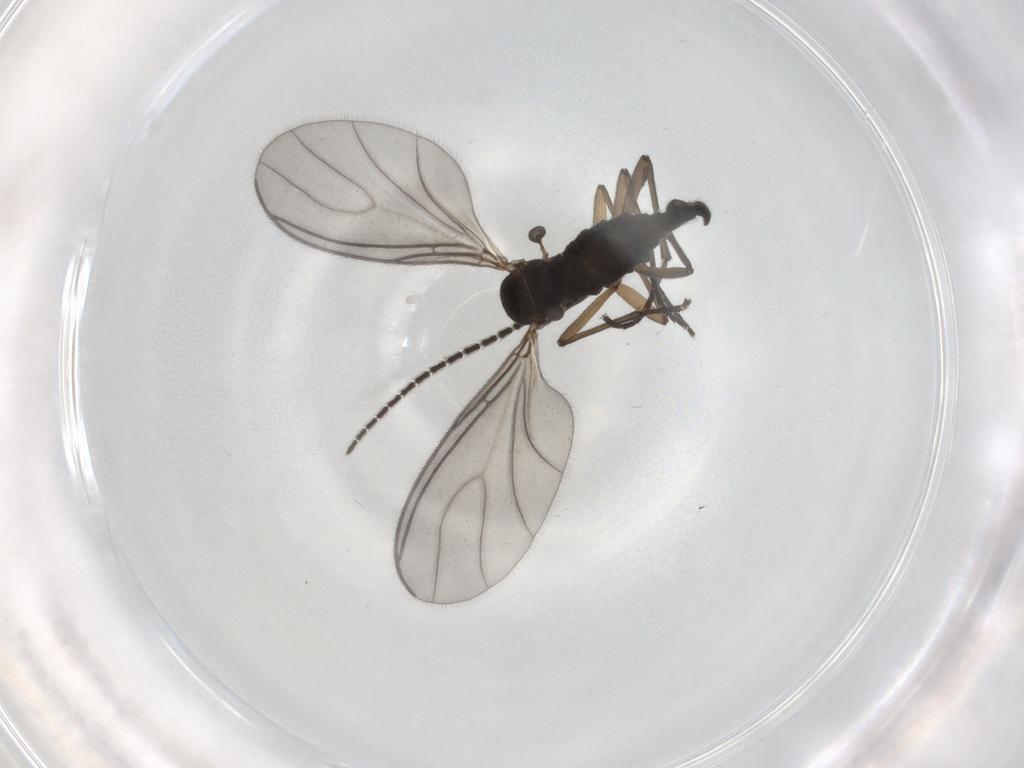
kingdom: Animalia
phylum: Arthropoda
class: Insecta
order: Diptera
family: Sciaridae
